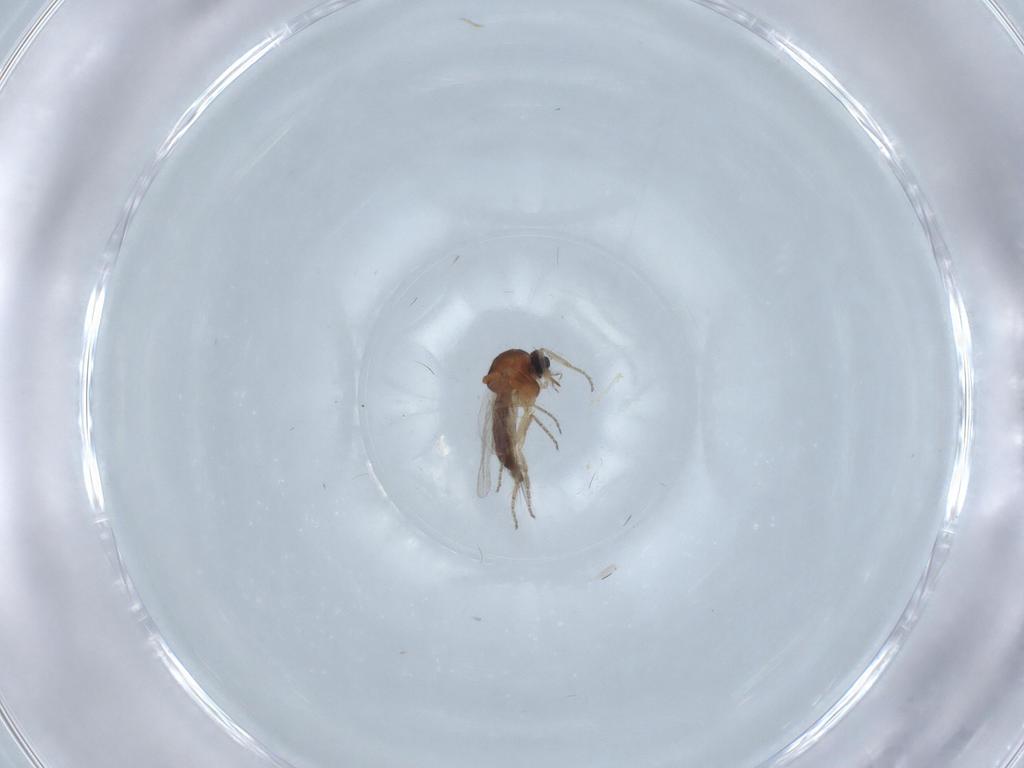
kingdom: Animalia
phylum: Arthropoda
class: Insecta
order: Diptera
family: Ceratopogonidae
